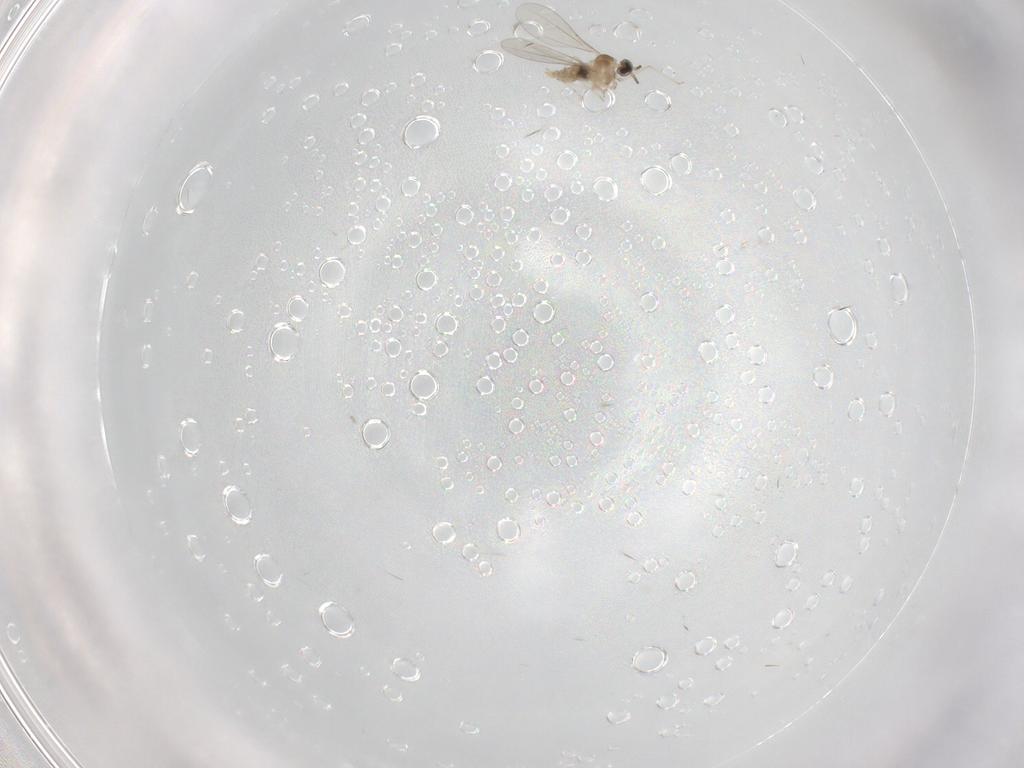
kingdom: Animalia
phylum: Arthropoda
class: Insecta
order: Diptera
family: Cecidomyiidae
